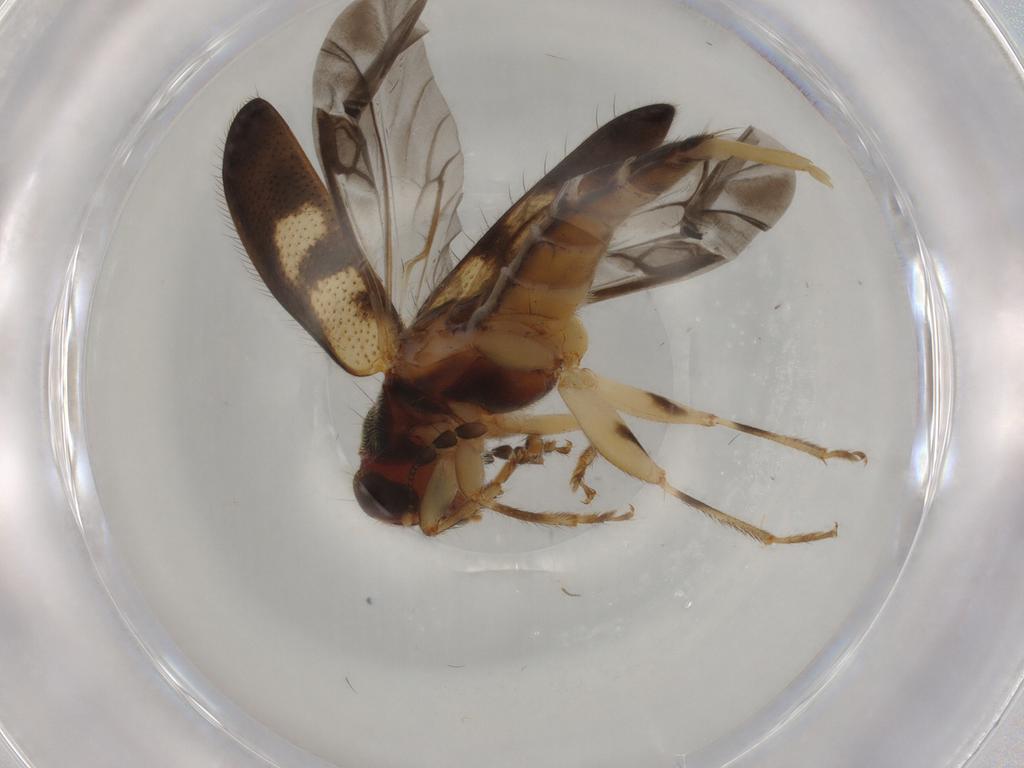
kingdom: Animalia
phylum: Arthropoda
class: Insecta
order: Coleoptera
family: Cleridae
